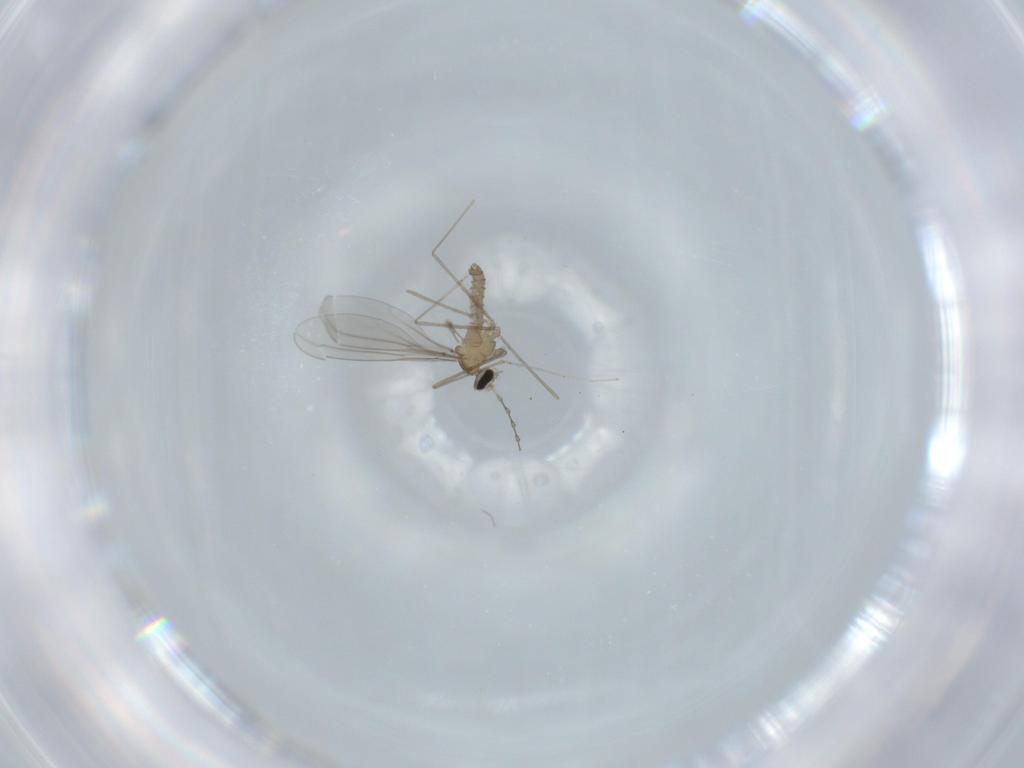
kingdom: Animalia
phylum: Arthropoda
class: Insecta
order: Diptera
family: Cecidomyiidae
